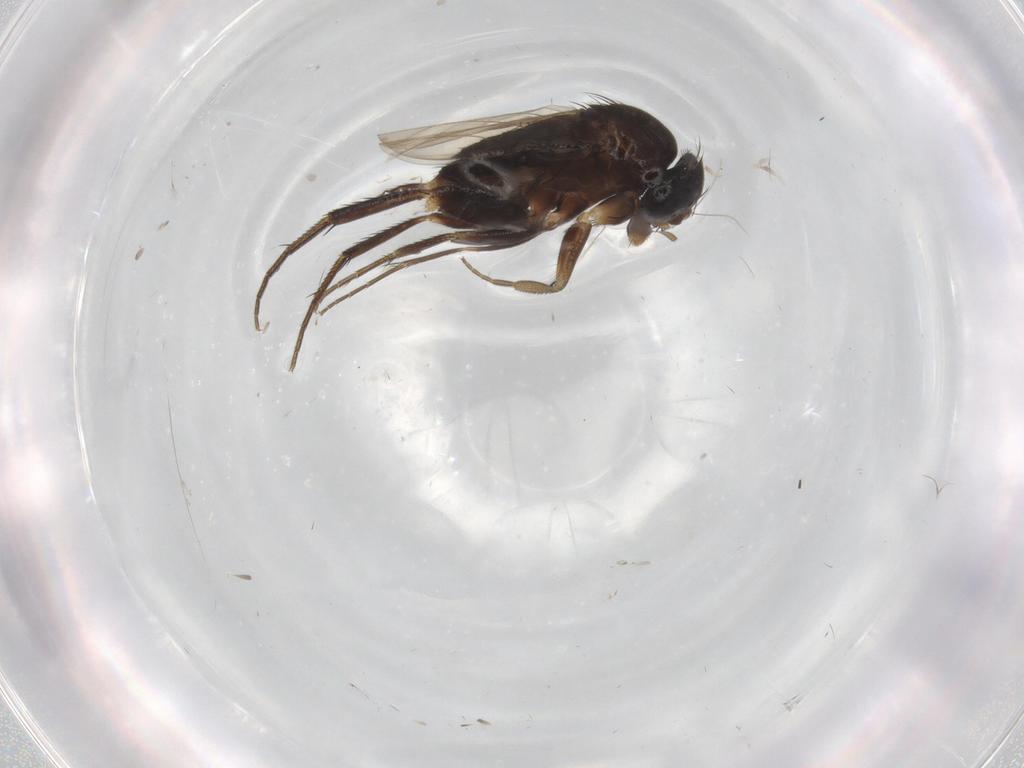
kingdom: Animalia
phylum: Arthropoda
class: Insecta
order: Diptera
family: Phoridae
